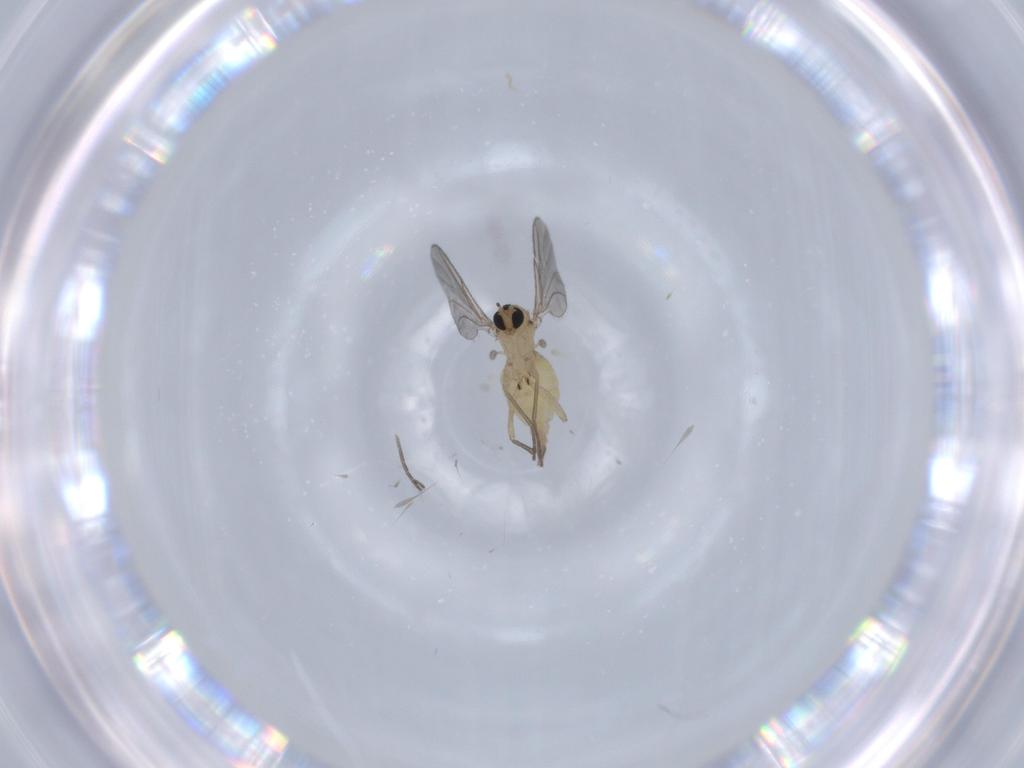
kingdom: Animalia
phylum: Arthropoda
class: Insecta
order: Diptera
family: Sciaridae
